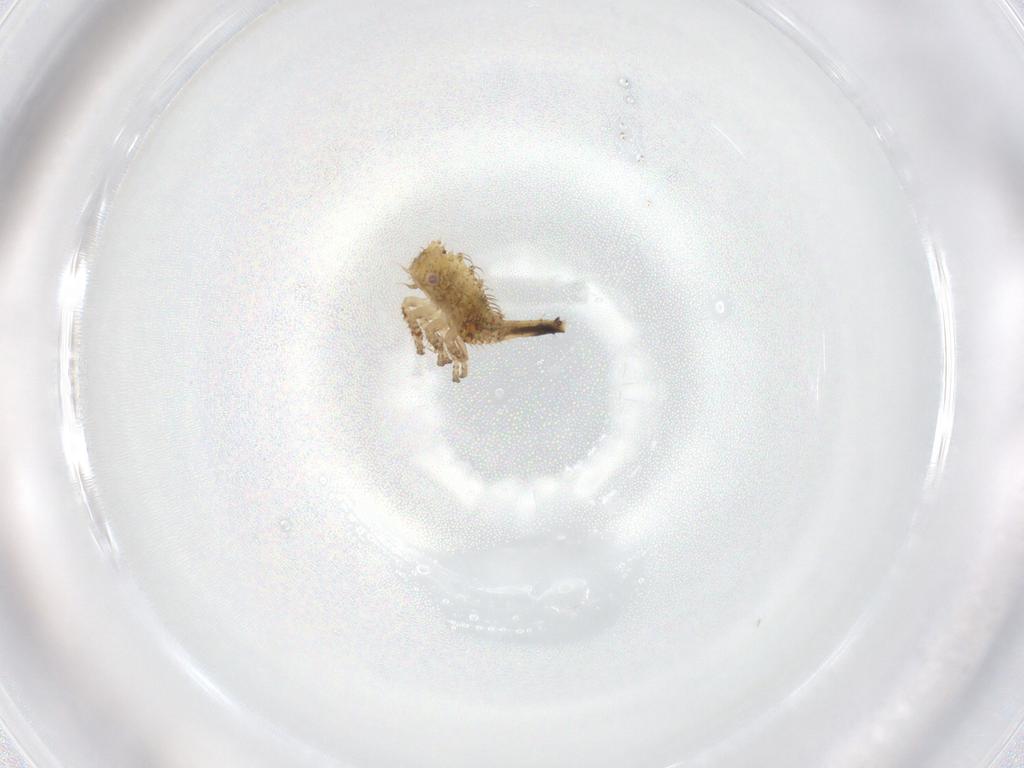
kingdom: Animalia
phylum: Arthropoda
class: Insecta
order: Hemiptera
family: Membracidae
